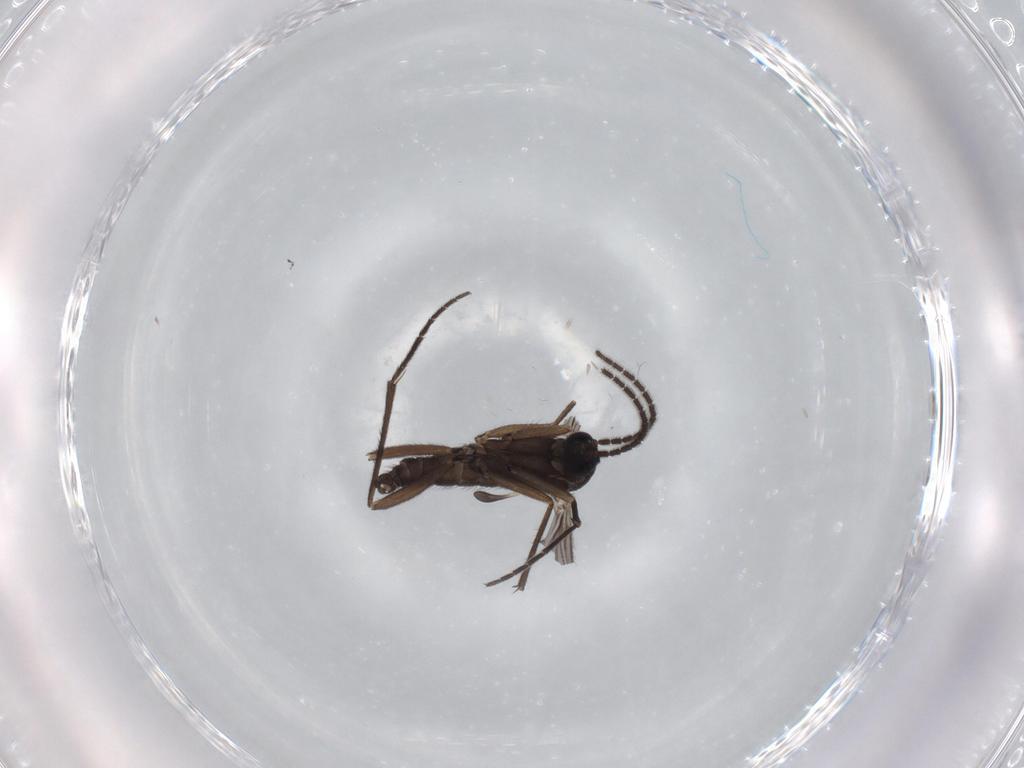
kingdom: Animalia
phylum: Arthropoda
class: Insecta
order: Diptera
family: Sciaridae
